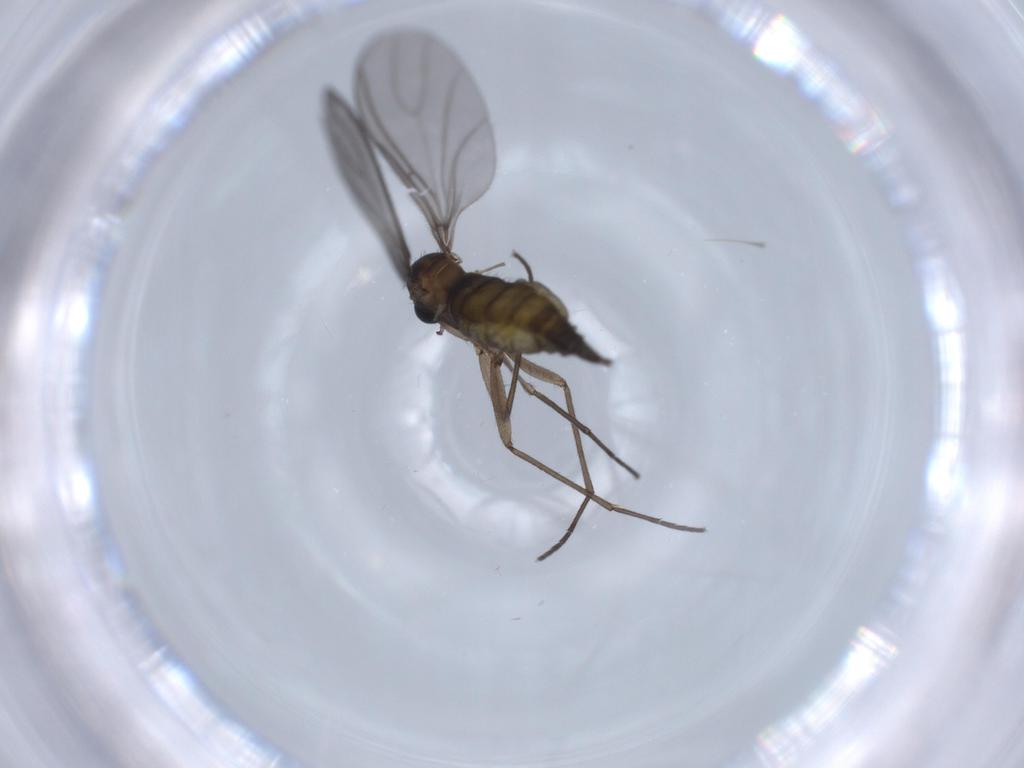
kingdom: Animalia
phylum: Arthropoda
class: Insecta
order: Diptera
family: Sciaridae
